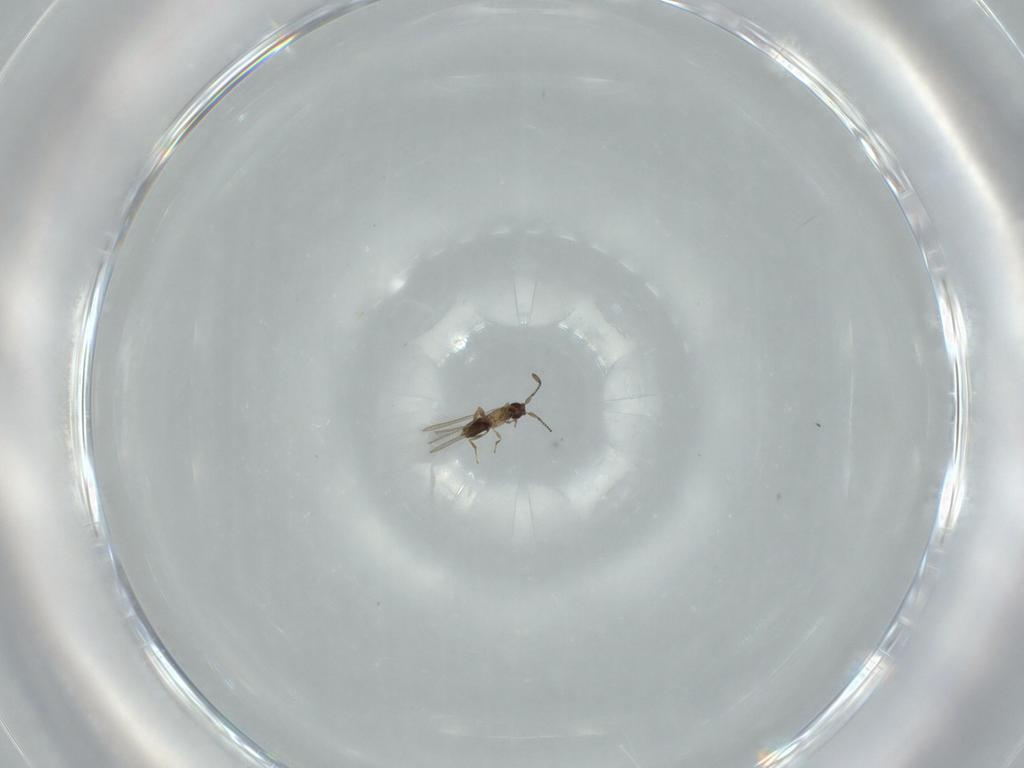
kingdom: Animalia
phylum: Arthropoda
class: Insecta
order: Hymenoptera
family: Mymaridae
